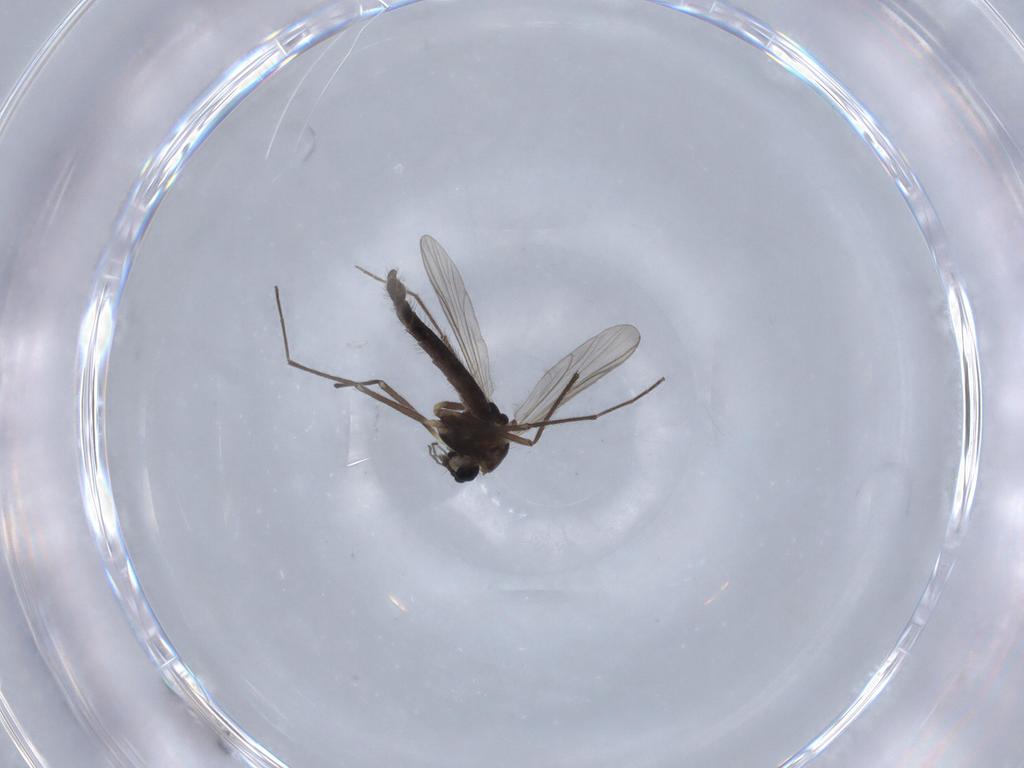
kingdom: Animalia
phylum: Arthropoda
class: Insecta
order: Diptera
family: Chironomidae
